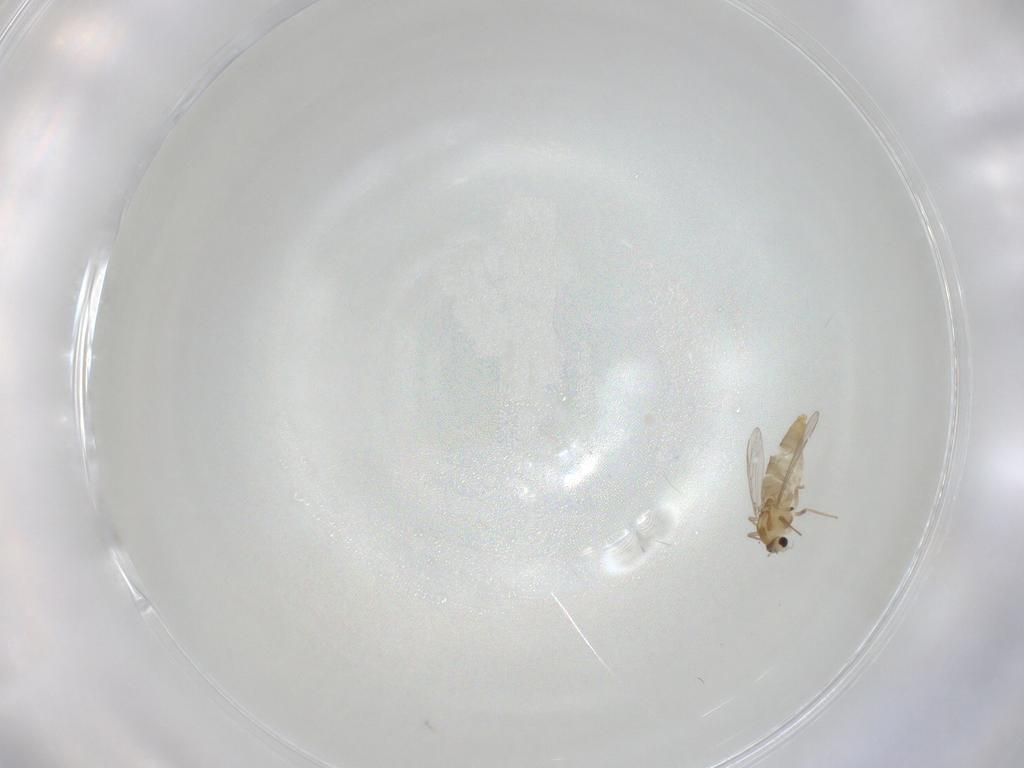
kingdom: Animalia
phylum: Arthropoda
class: Insecta
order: Diptera
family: Chironomidae
